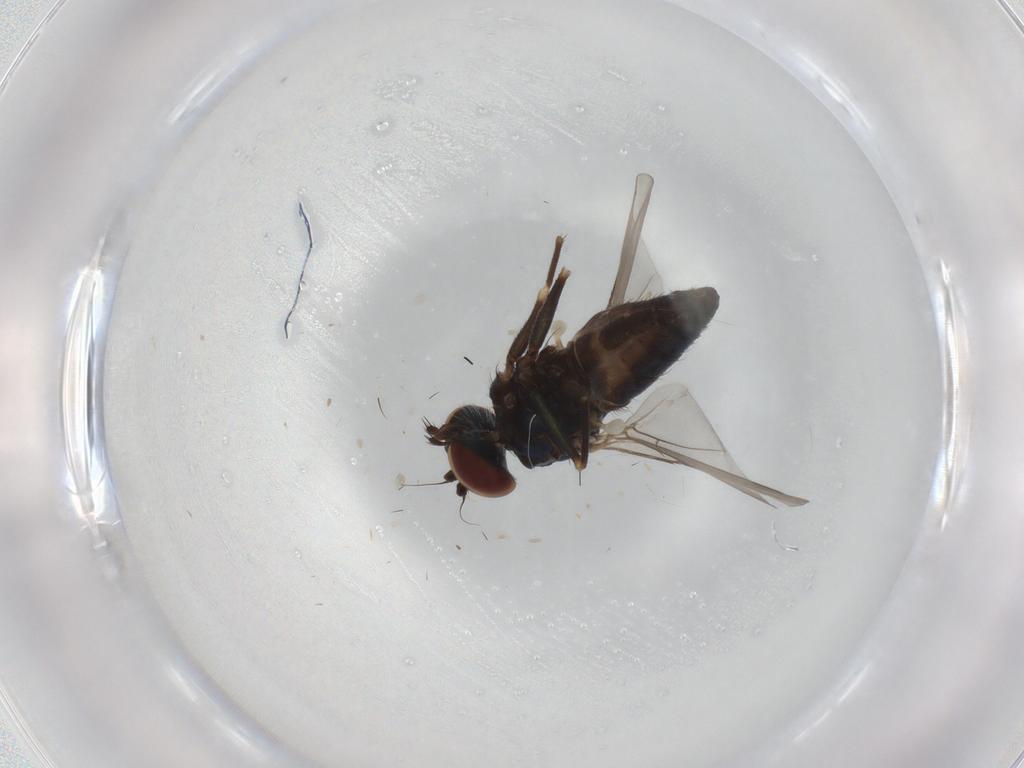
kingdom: Animalia
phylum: Arthropoda
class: Insecta
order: Diptera
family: Dolichopodidae
